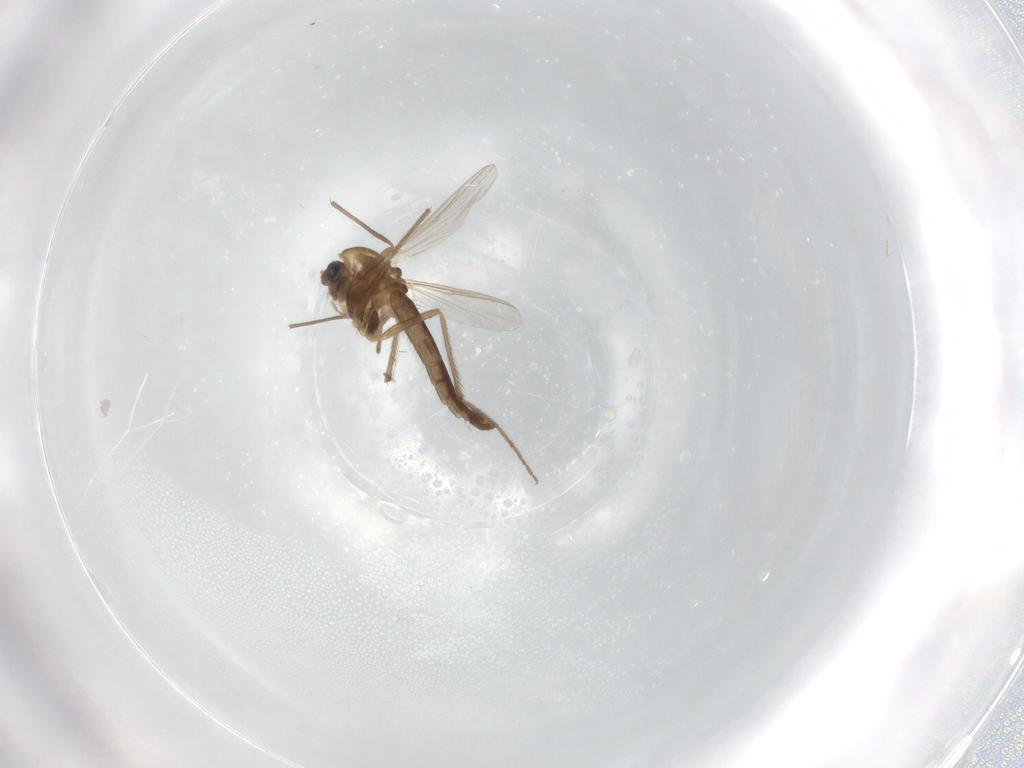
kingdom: Animalia
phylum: Arthropoda
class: Insecta
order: Diptera
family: Chironomidae
